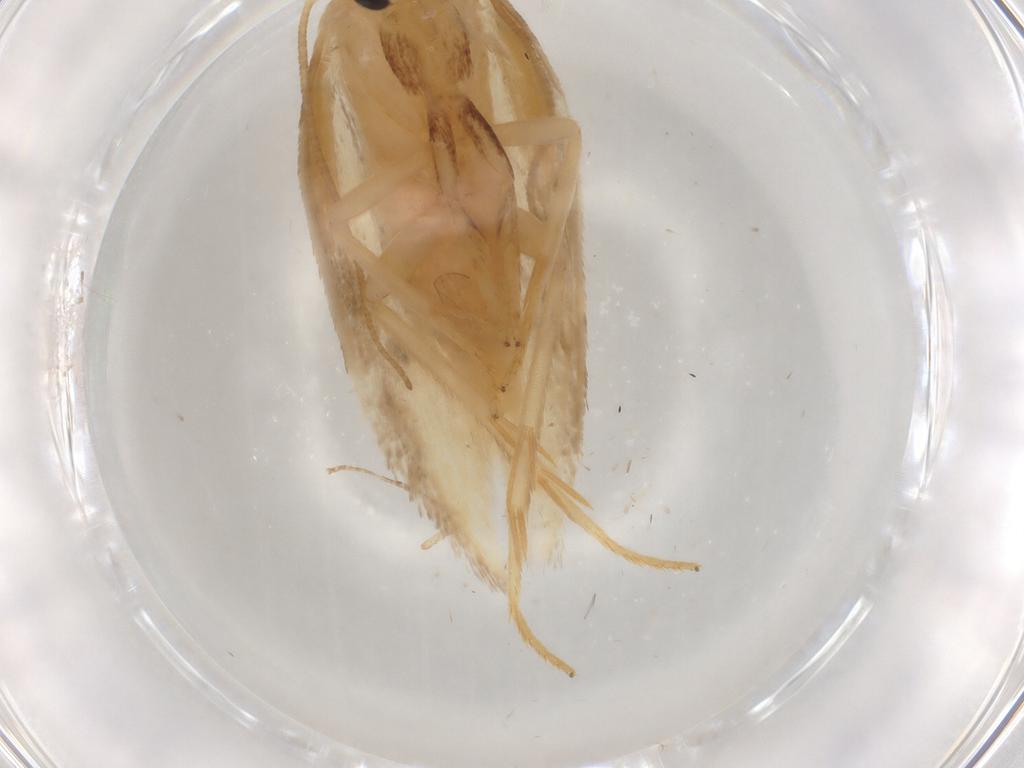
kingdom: Animalia
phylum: Arthropoda
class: Insecta
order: Lepidoptera
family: Geometridae
